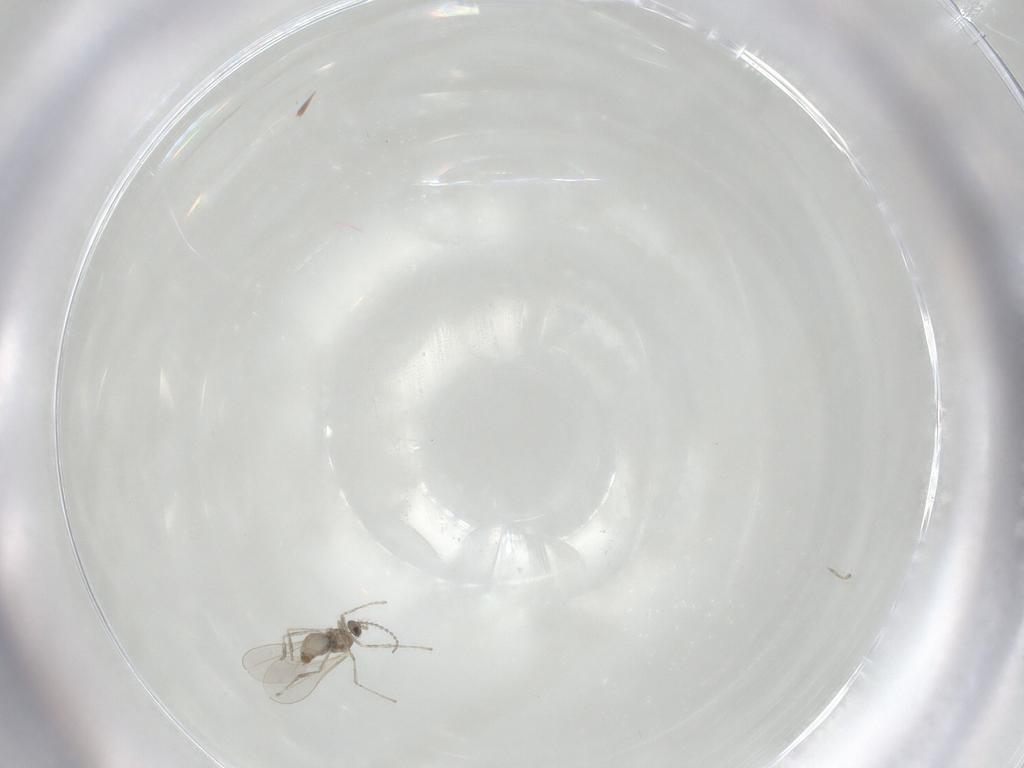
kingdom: Animalia
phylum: Arthropoda
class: Insecta
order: Diptera
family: Cecidomyiidae
